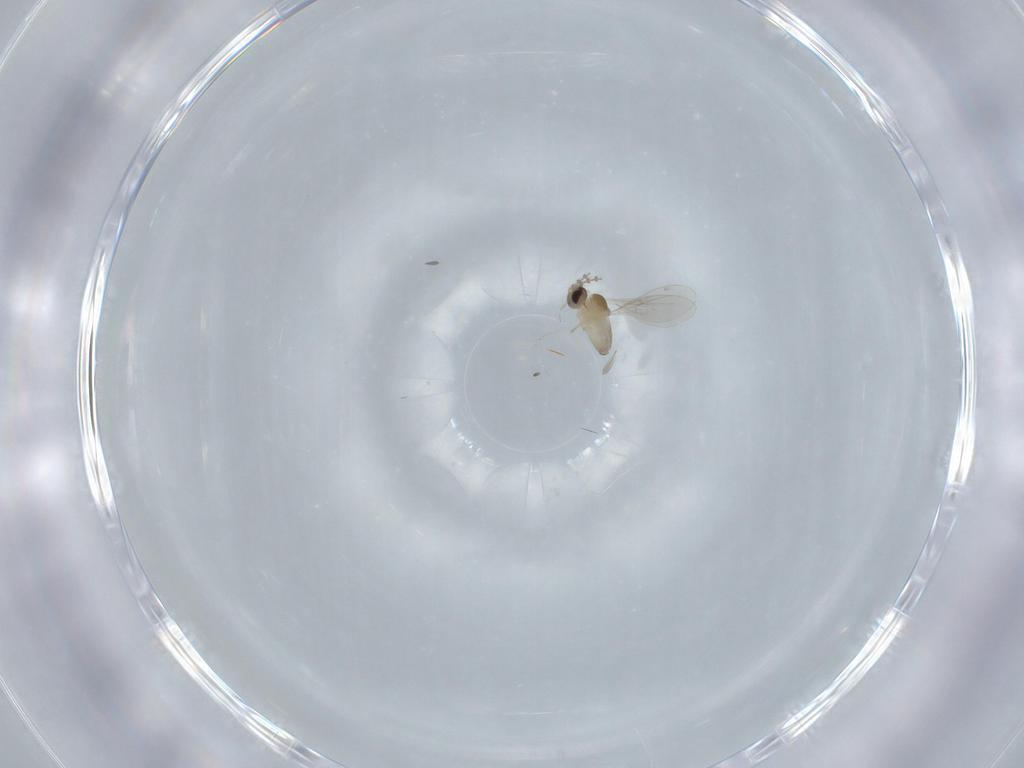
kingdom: Animalia
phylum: Arthropoda
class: Insecta
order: Diptera
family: Cecidomyiidae
